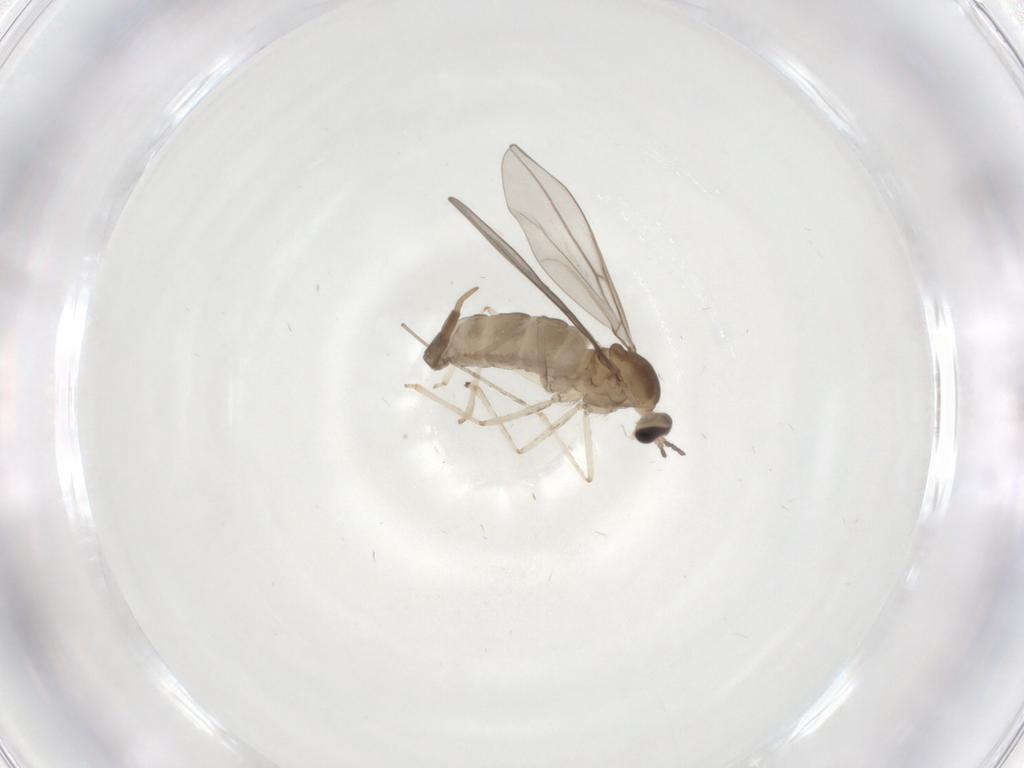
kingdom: Animalia
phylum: Arthropoda
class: Insecta
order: Diptera
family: Cecidomyiidae
